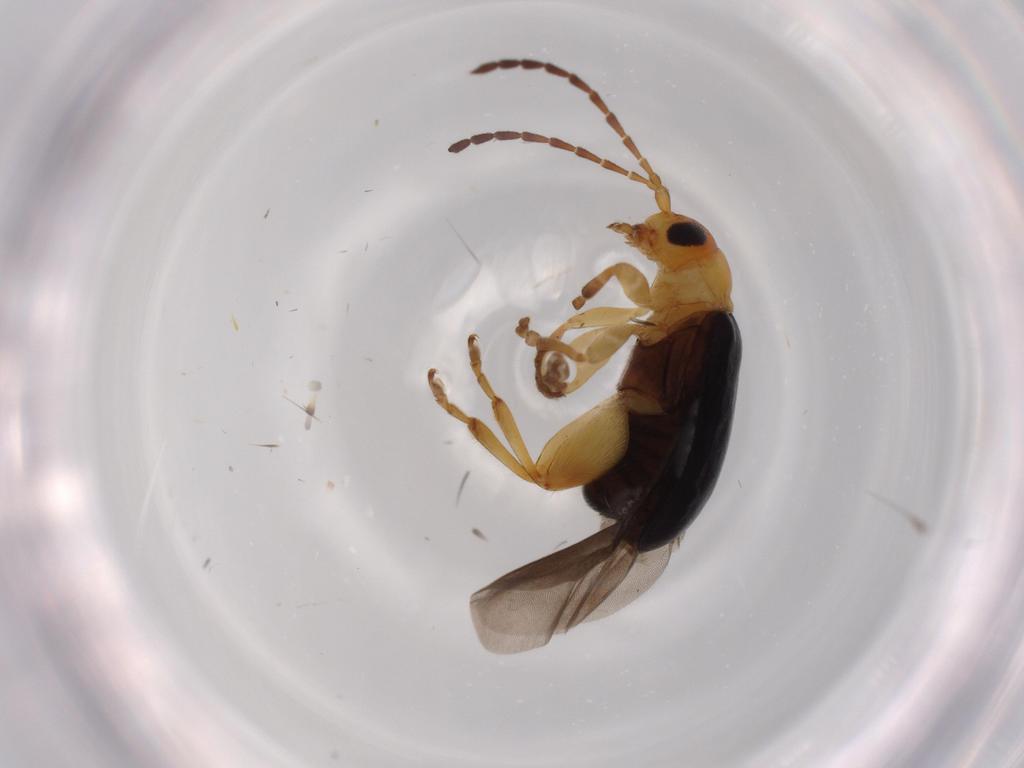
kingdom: Animalia
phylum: Arthropoda
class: Insecta
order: Coleoptera
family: Chrysomelidae
